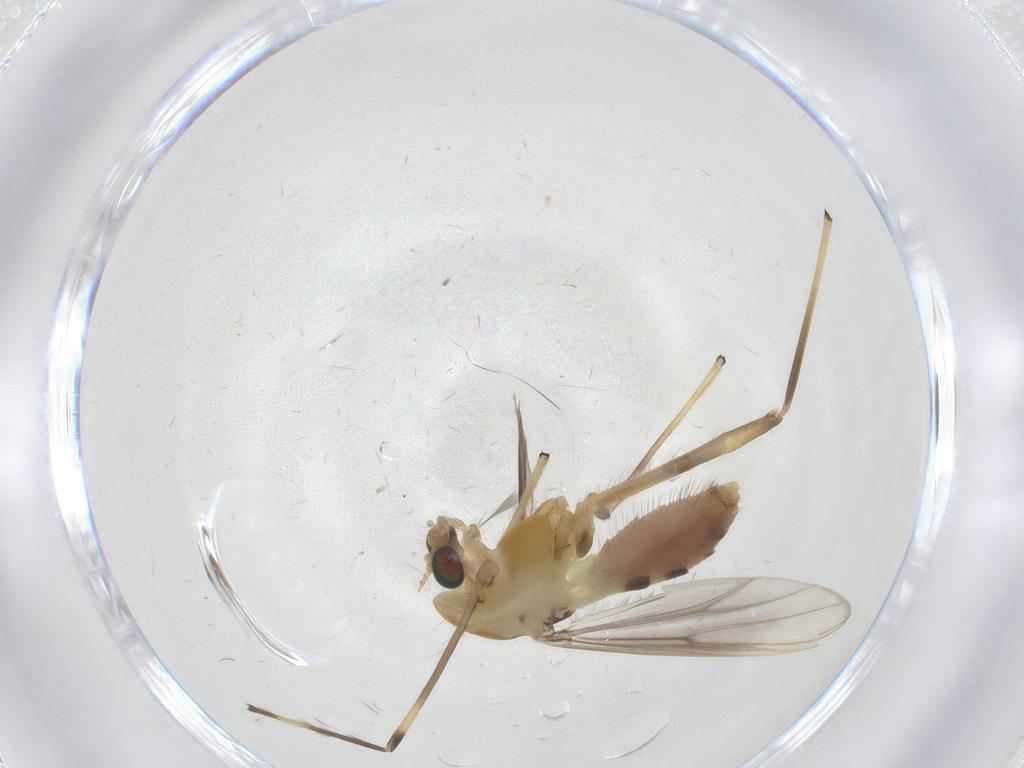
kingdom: Animalia
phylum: Arthropoda
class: Insecta
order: Diptera
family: Chironomidae
